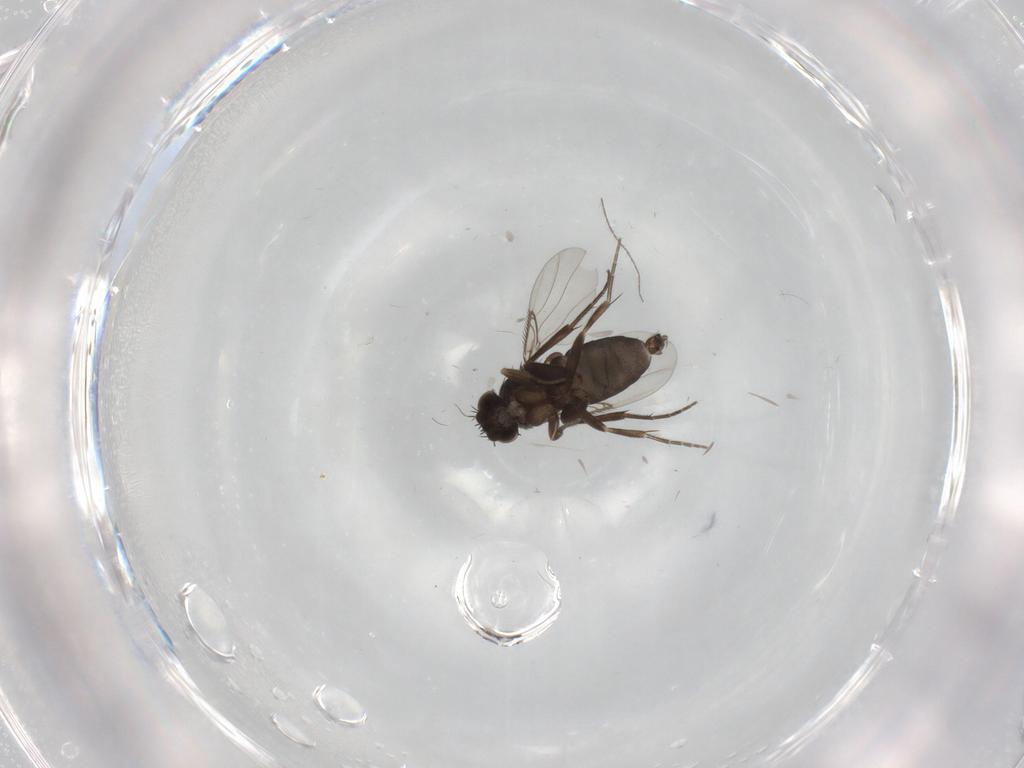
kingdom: Animalia
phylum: Arthropoda
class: Insecta
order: Diptera
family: Phoridae
